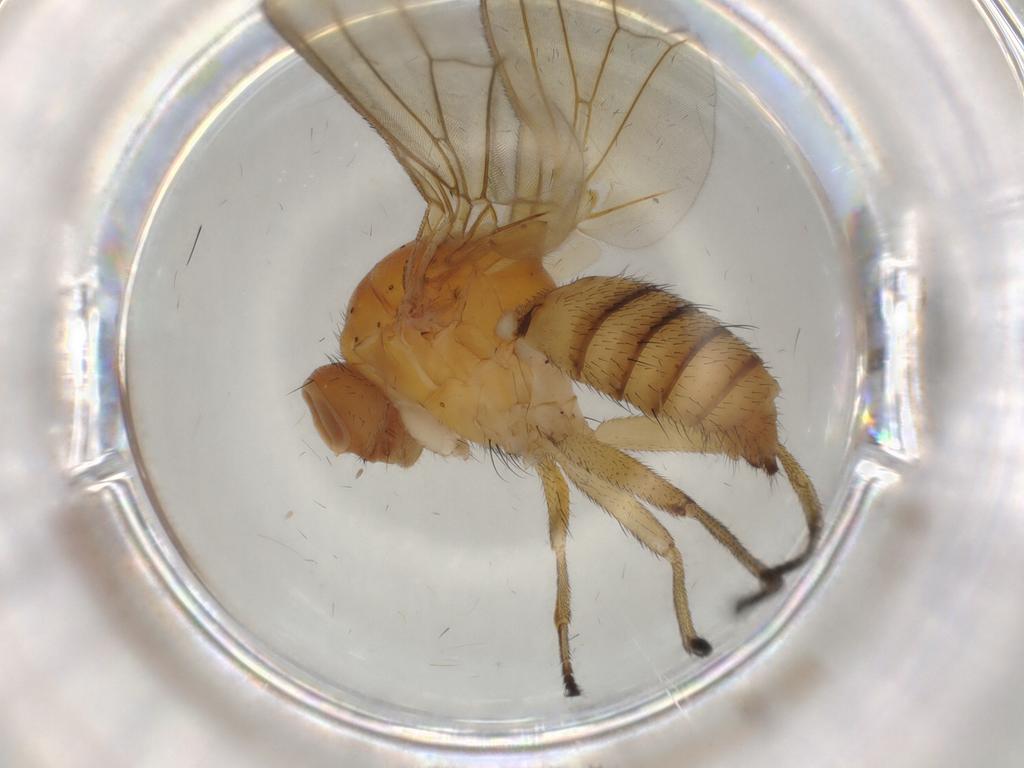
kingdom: Animalia
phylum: Arthropoda
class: Insecta
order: Diptera
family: Heleomyzidae
